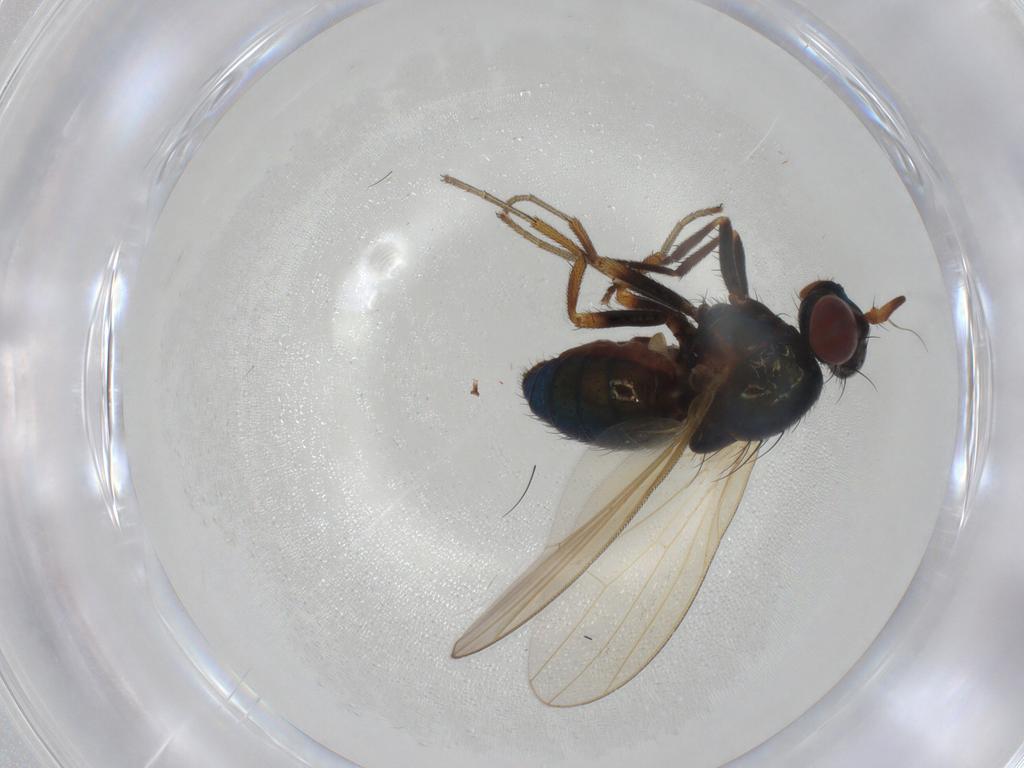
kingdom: Animalia
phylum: Arthropoda
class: Insecta
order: Diptera
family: Lauxaniidae
